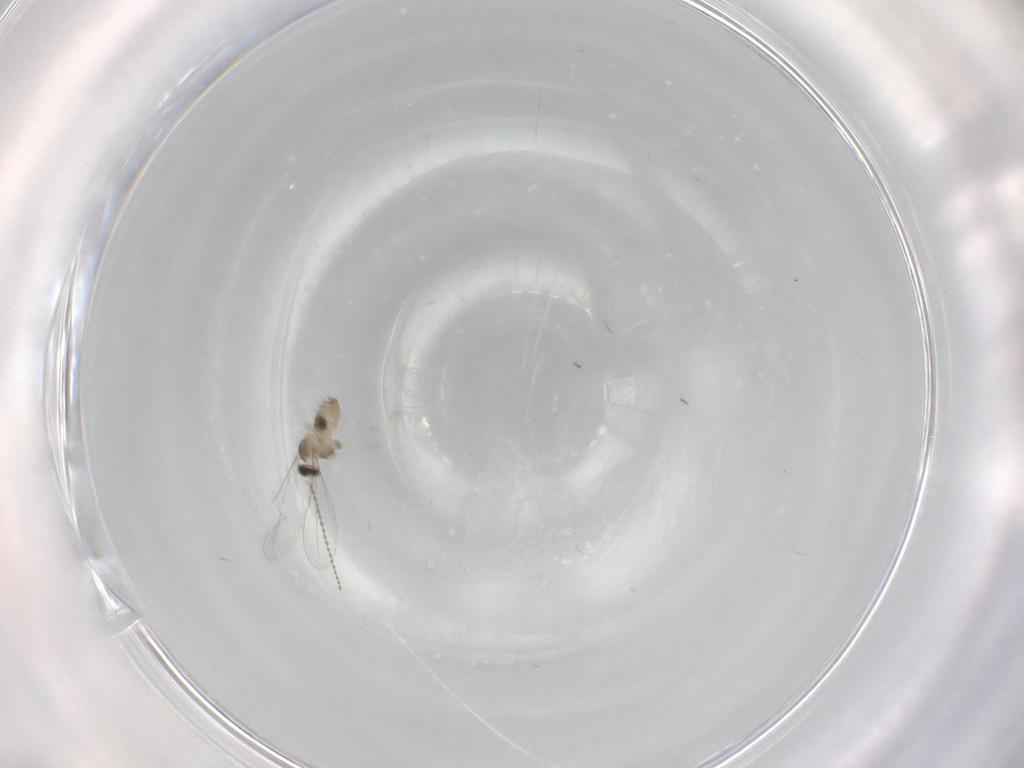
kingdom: Animalia
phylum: Arthropoda
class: Insecta
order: Diptera
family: Cecidomyiidae
